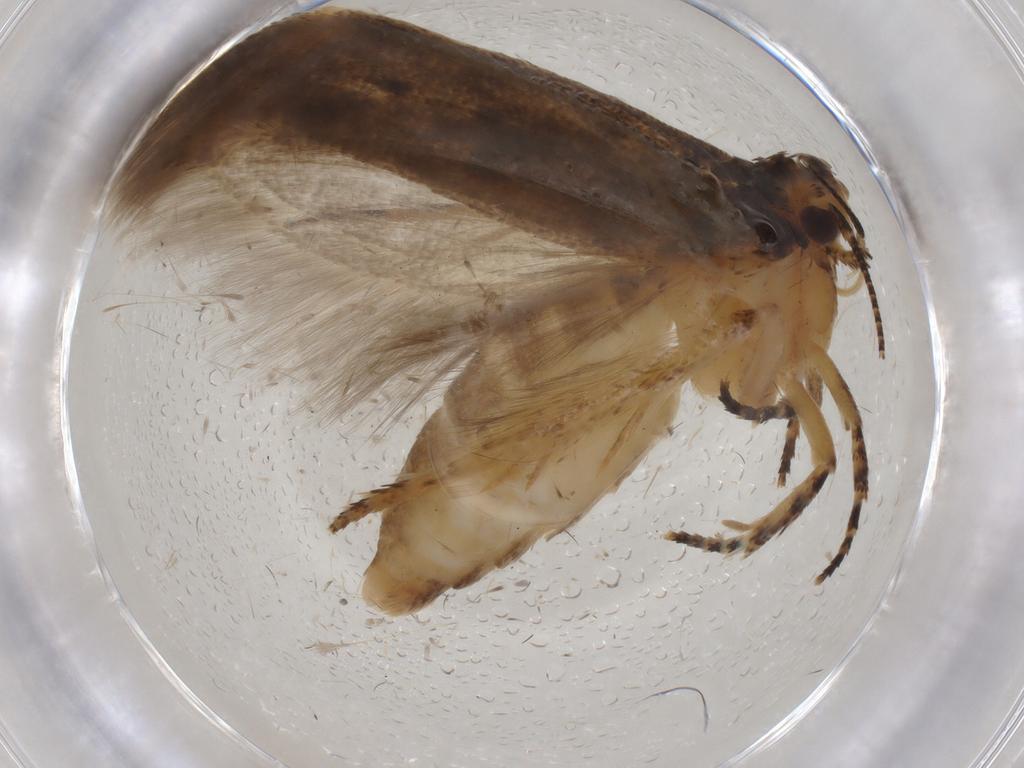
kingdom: Animalia
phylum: Arthropoda
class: Insecta
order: Lepidoptera
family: Gelechiidae
